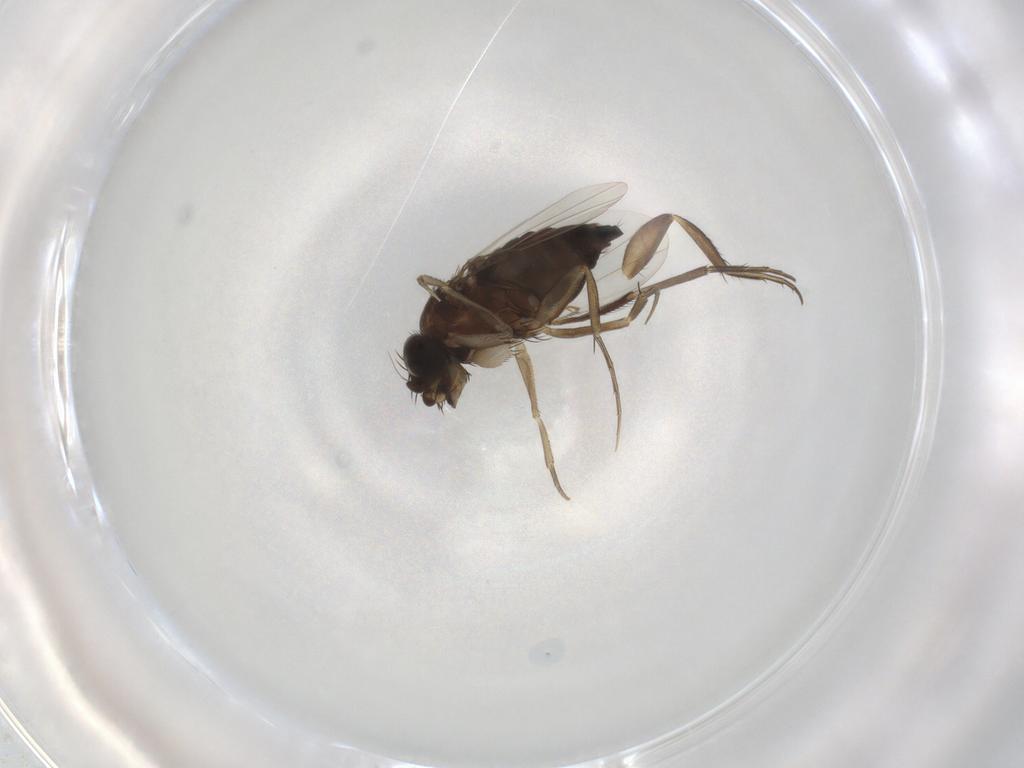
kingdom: Animalia
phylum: Arthropoda
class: Insecta
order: Diptera
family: Phoridae
